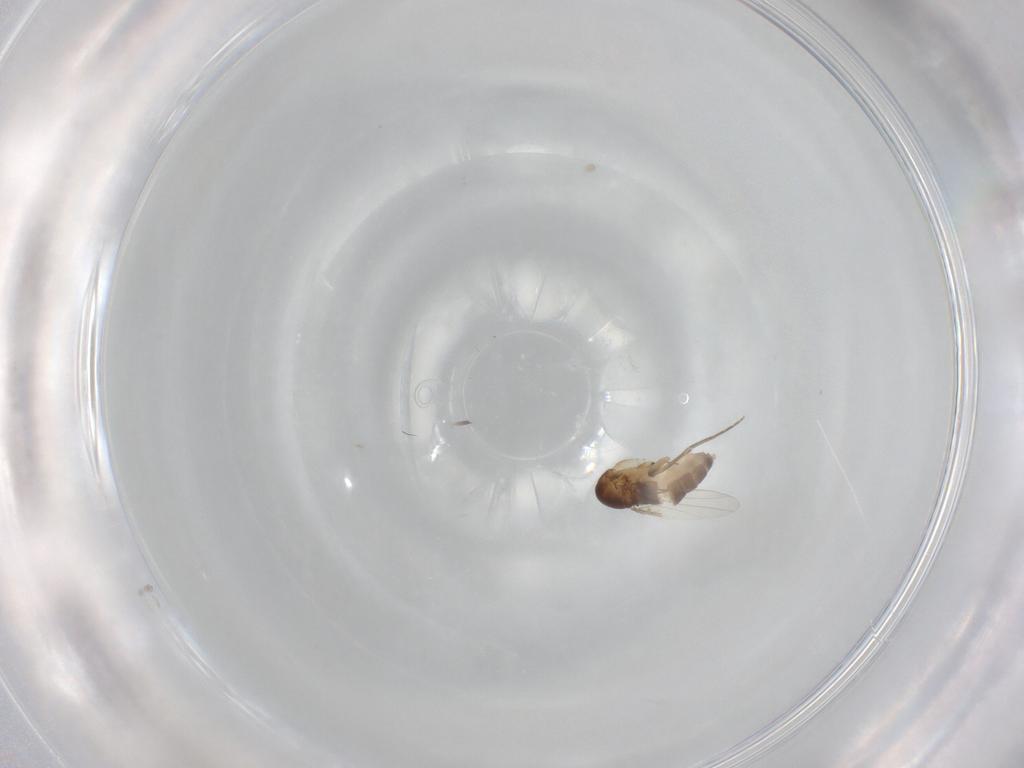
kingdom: Animalia
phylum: Arthropoda
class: Insecta
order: Diptera
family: Phoridae
